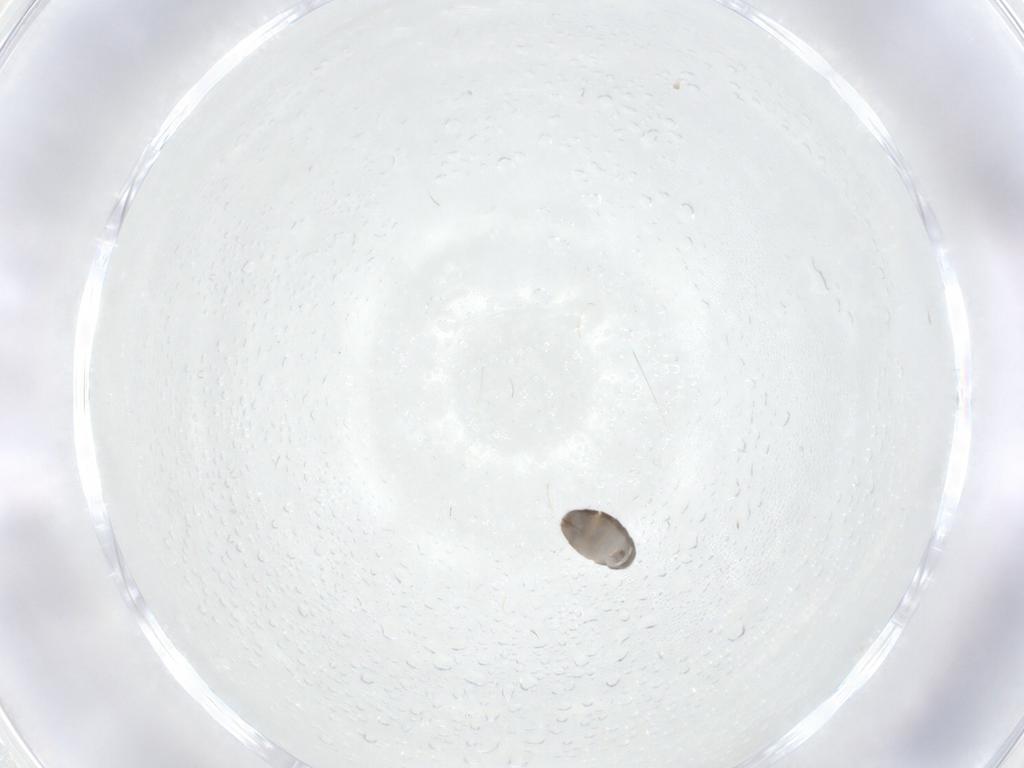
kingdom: Animalia
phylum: Arthropoda
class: Collembola
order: Entomobryomorpha
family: Entomobryidae
